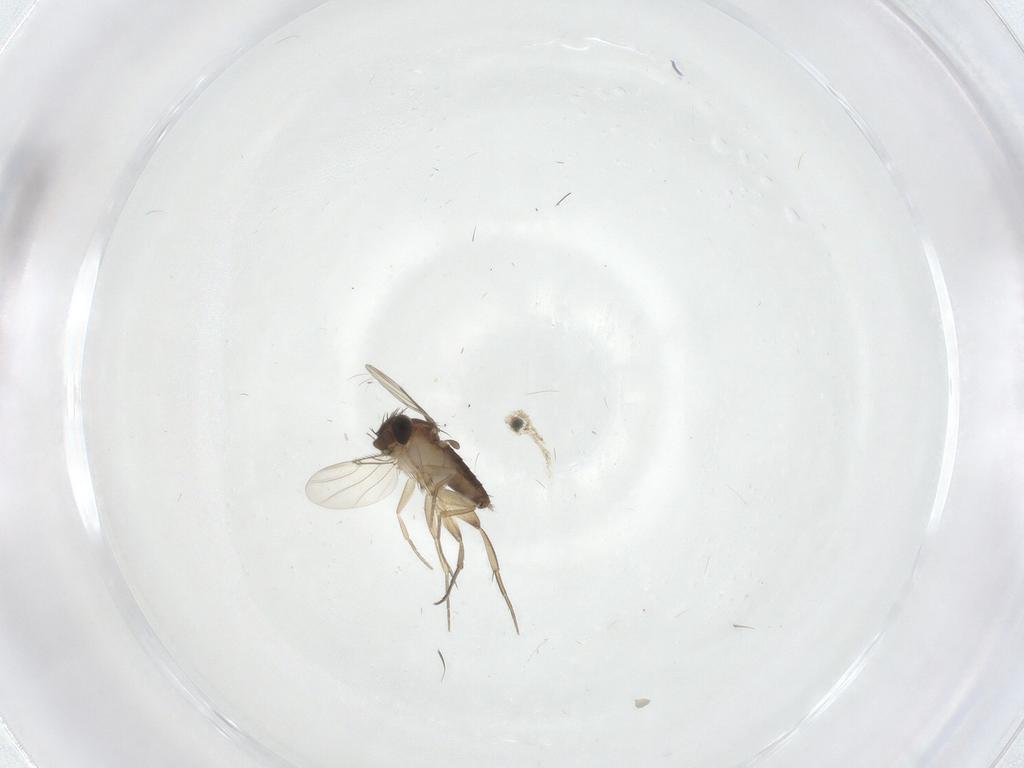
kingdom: Animalia
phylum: Arthropoda
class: Insecta
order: Diptera
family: Phoridae
